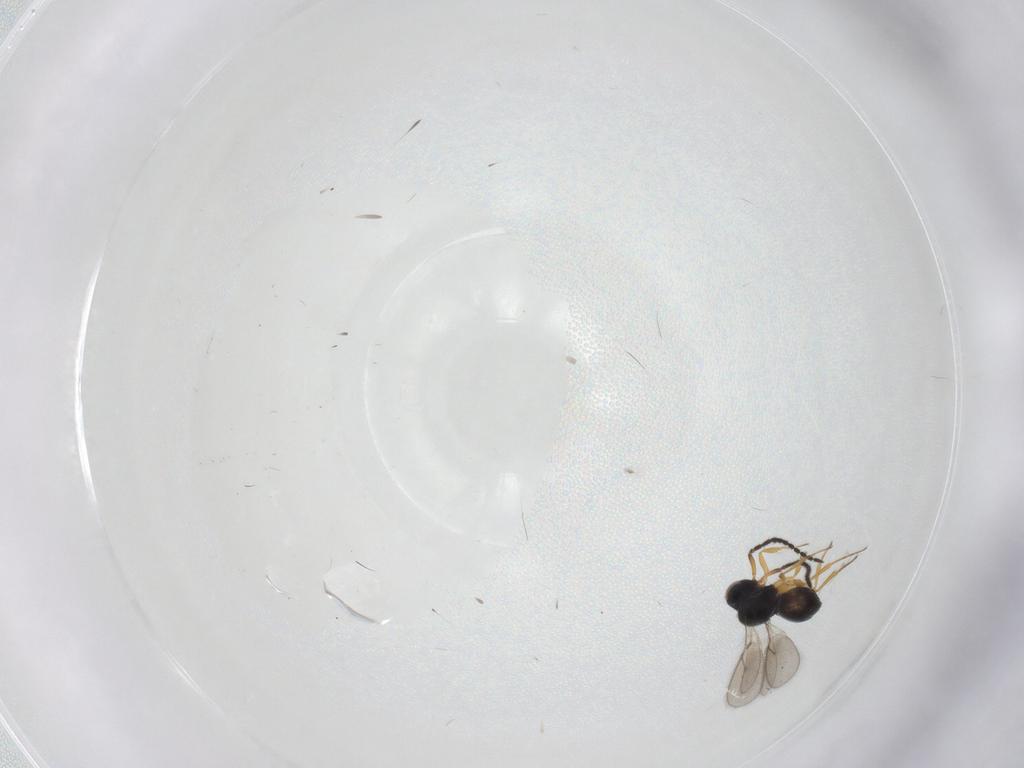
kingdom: Animalia
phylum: Arthropoda
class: Insecta
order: Hymenoptera
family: Scelionidae
